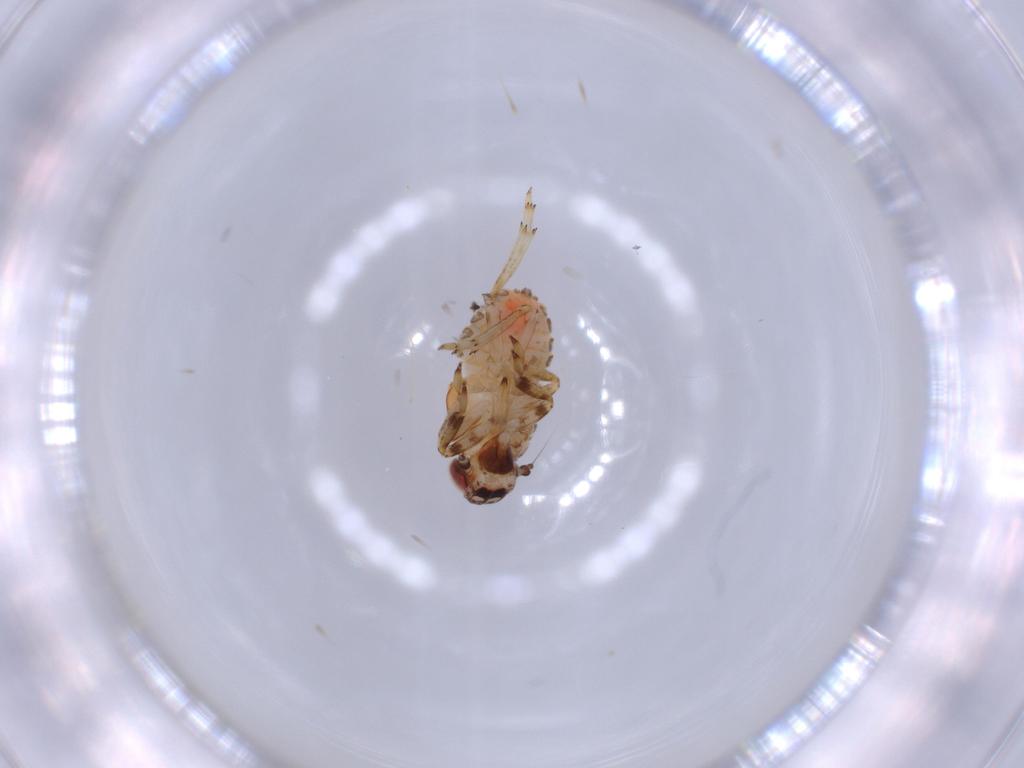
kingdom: Animalia
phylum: Arthropoda
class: Insecta
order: Hemiptera
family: Issidae
